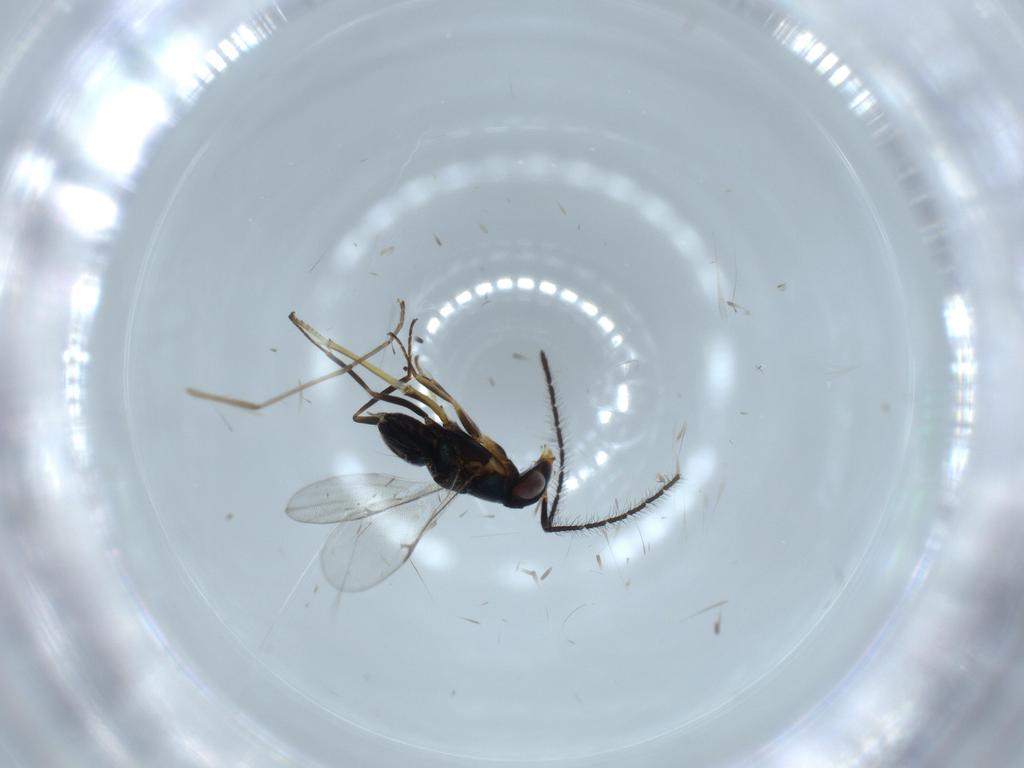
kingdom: Animalia
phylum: Arthropoda
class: Insecta
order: Hymenoptera
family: Encyrtidae
